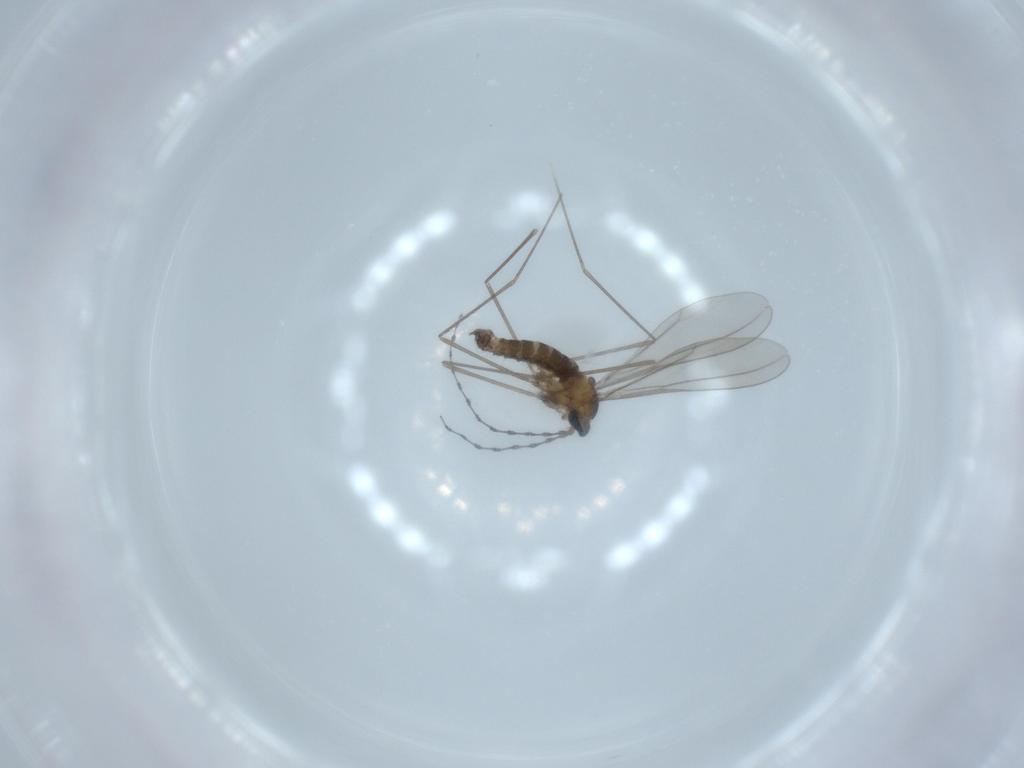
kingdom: Animalia
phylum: Arthropoda
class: Insecta
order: Diptera
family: Cecidomyiidae
